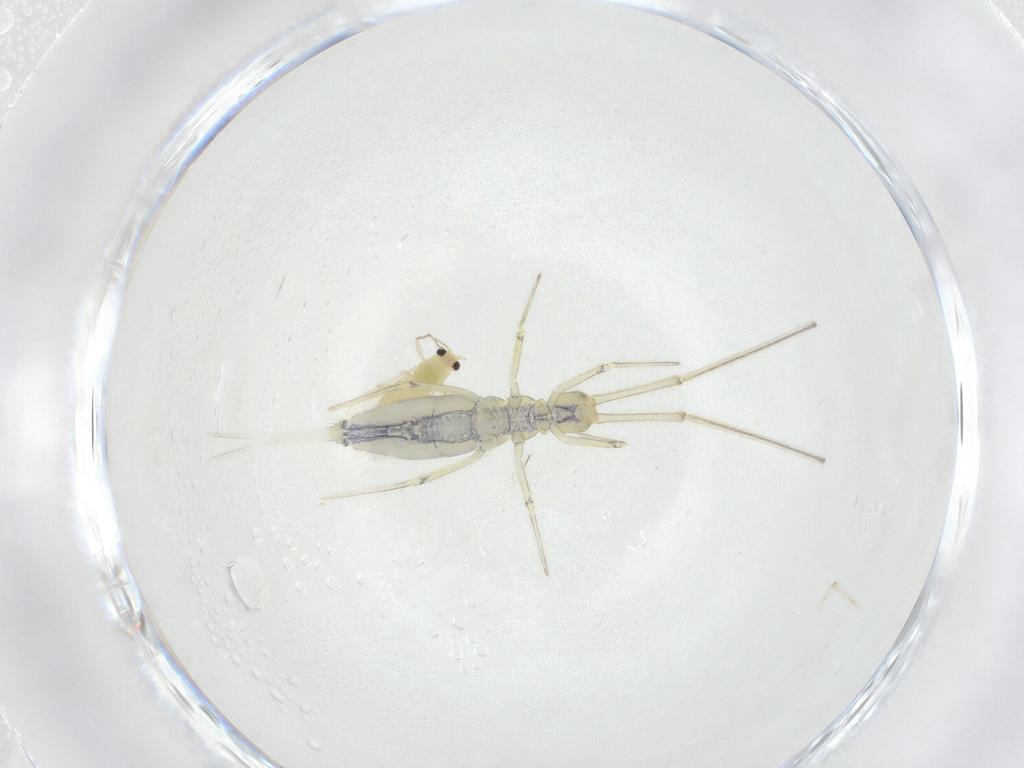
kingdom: Animalia
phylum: Arthropoda
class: Insecta
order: Diptera
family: Chironomidae
